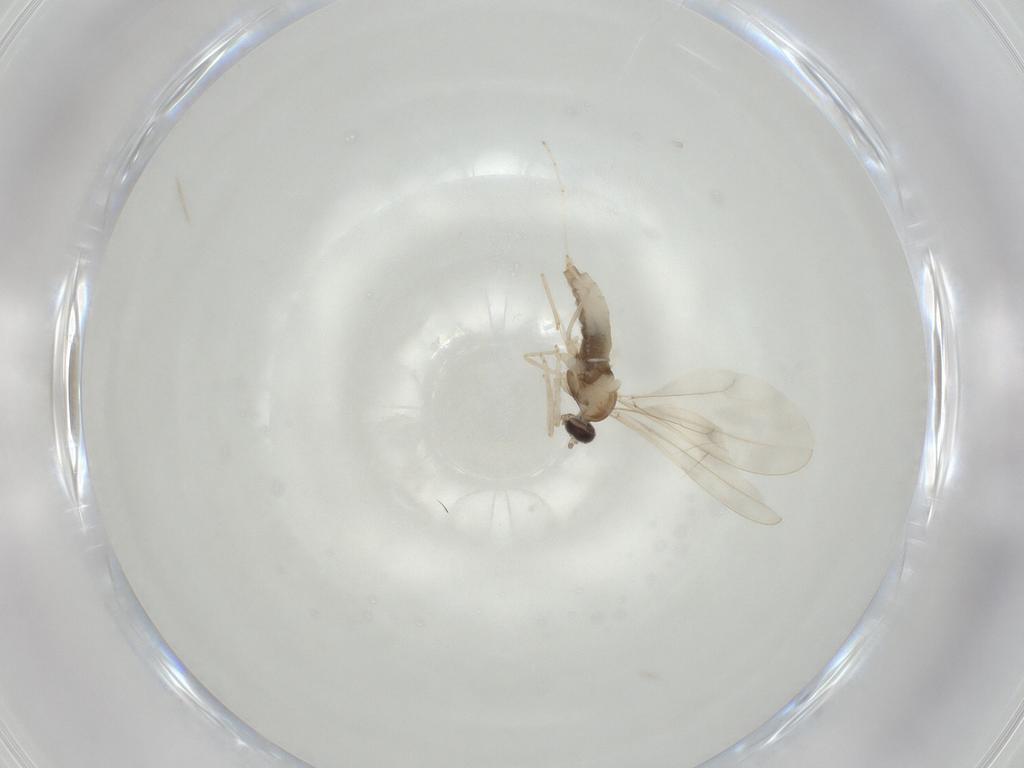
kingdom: Animalia
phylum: Arthropoda
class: Insecta
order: Diptera
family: Cecidomyiidae
